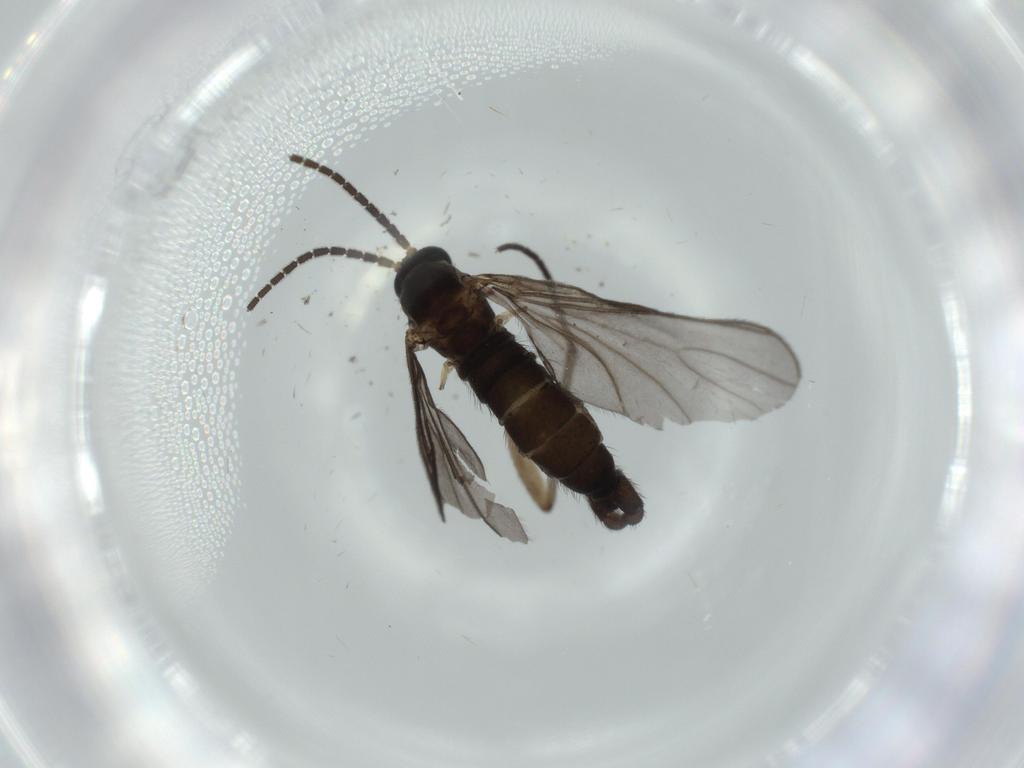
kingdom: Animalia
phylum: Arthropoda
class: Insecta
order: Diptera
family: Sciaridae
